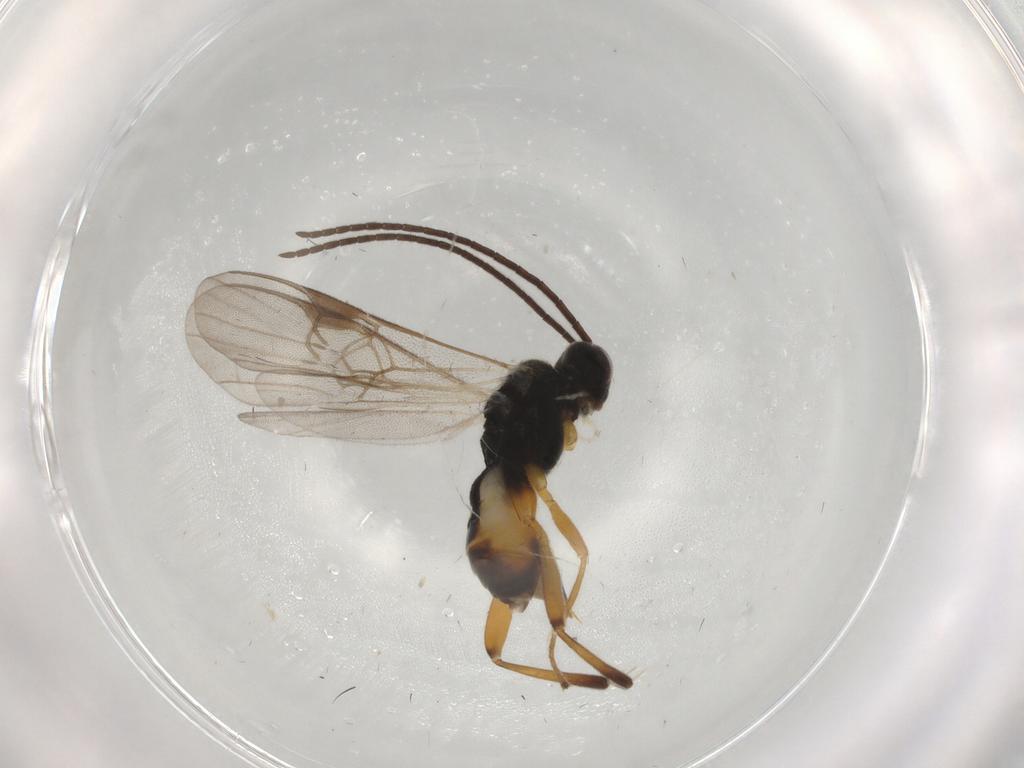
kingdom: Animalia
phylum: Arthropoda
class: Insecta
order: Hymenoptera
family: Braconidae
